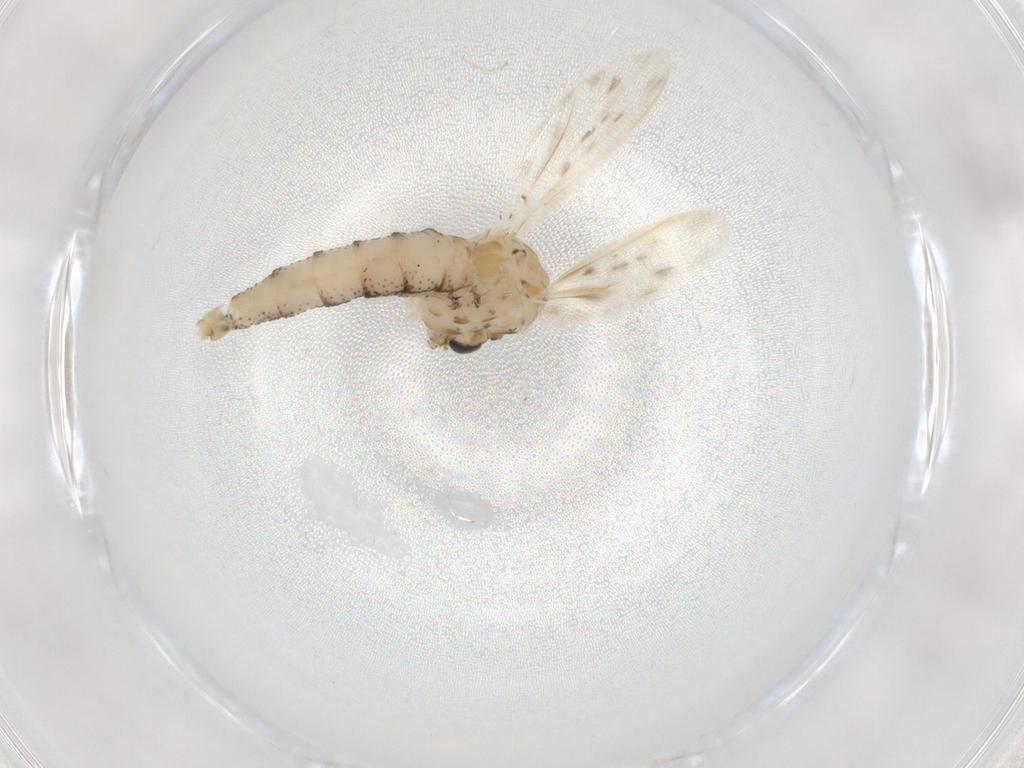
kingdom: Animalia
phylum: Arthropoda
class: Insecta
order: Diptera
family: Chaoboridae
